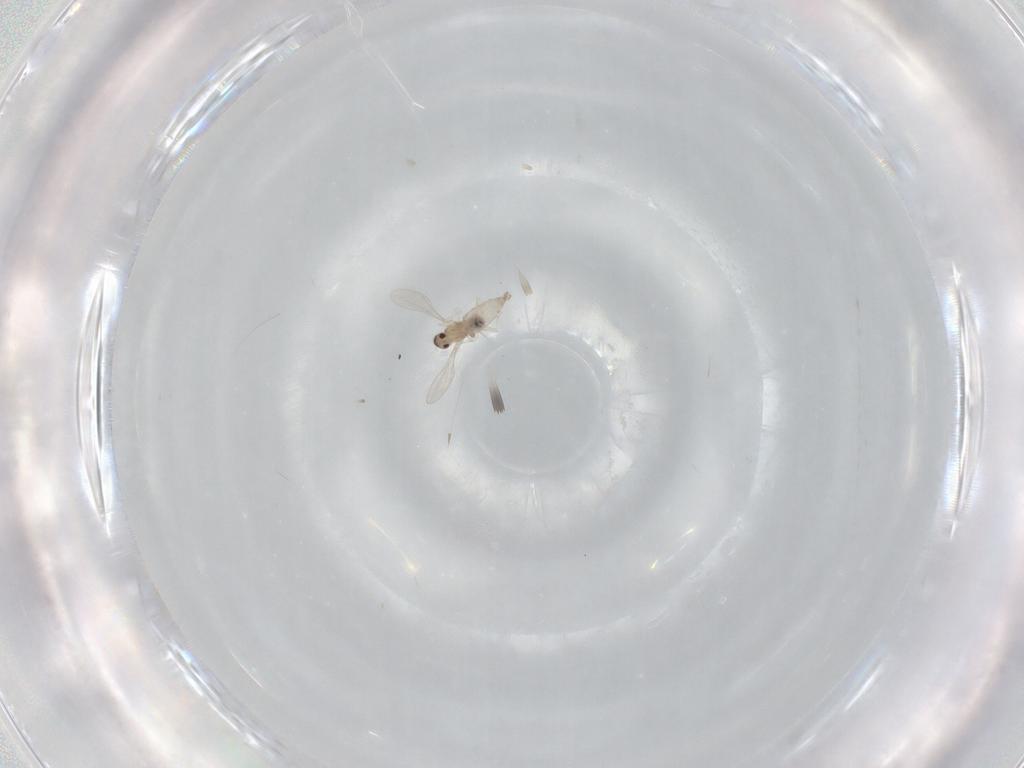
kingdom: Animalia
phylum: Arthropoda
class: Insecta
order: Diptera
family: Cecidomyiidae
